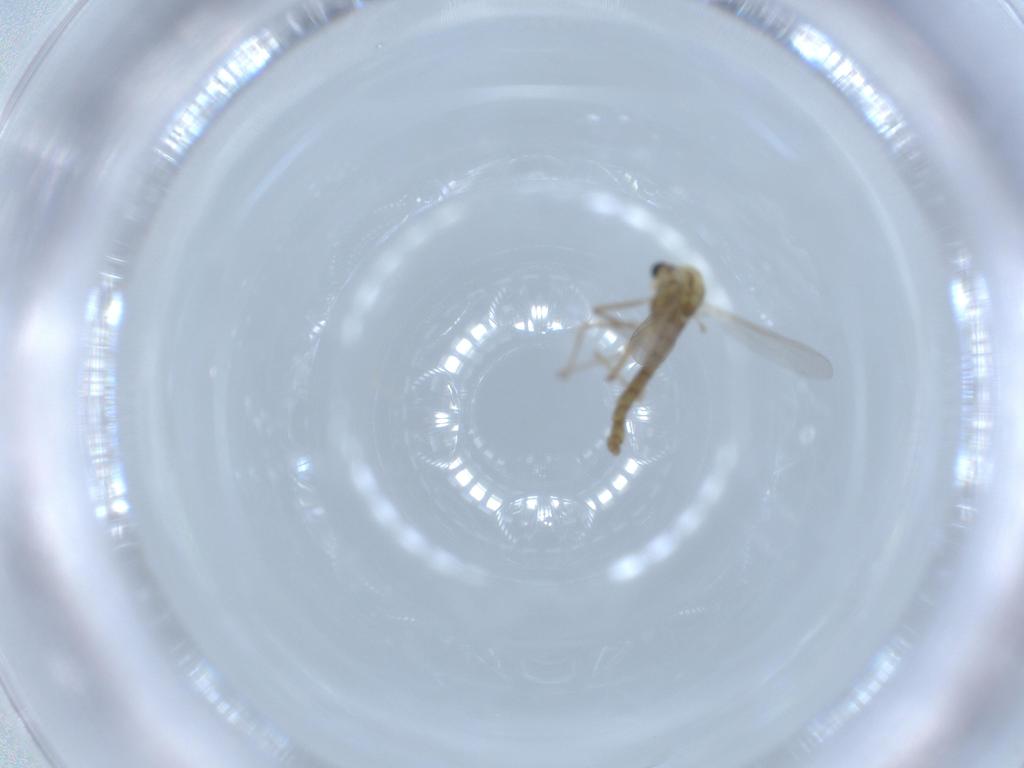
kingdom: Animalia
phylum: Arthropoda
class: Insecta
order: Diptera
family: Chironomidae
